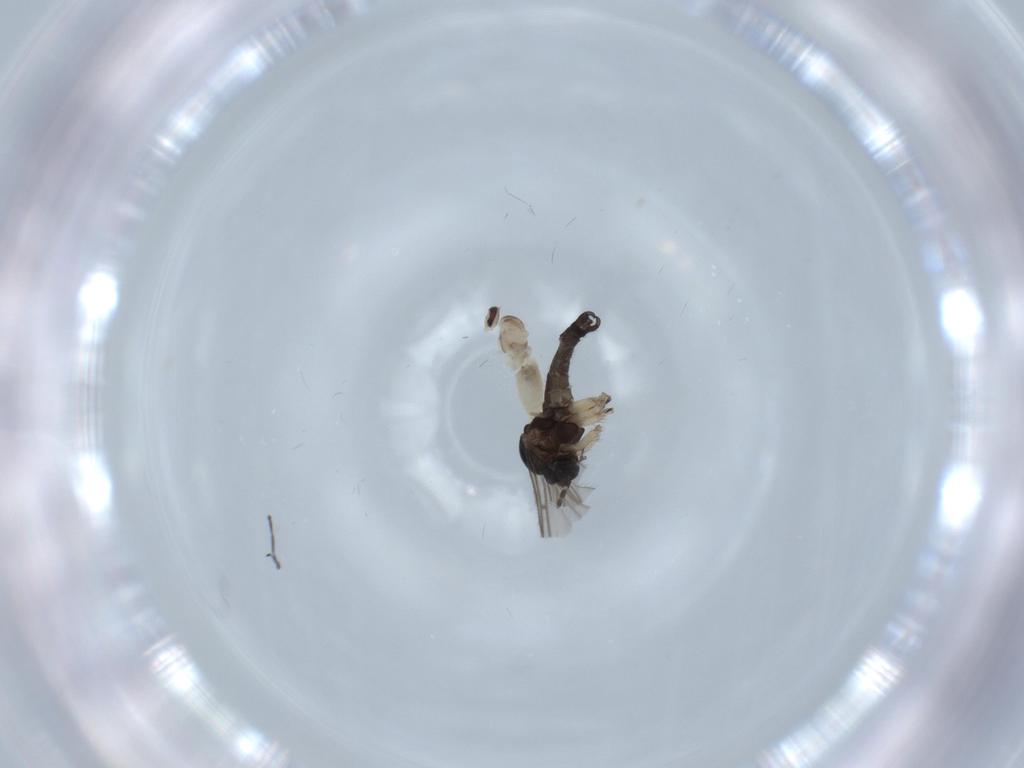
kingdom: Animalia
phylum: Arthropoda
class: Insecta
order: Diptera
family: Cecidomyiidae
